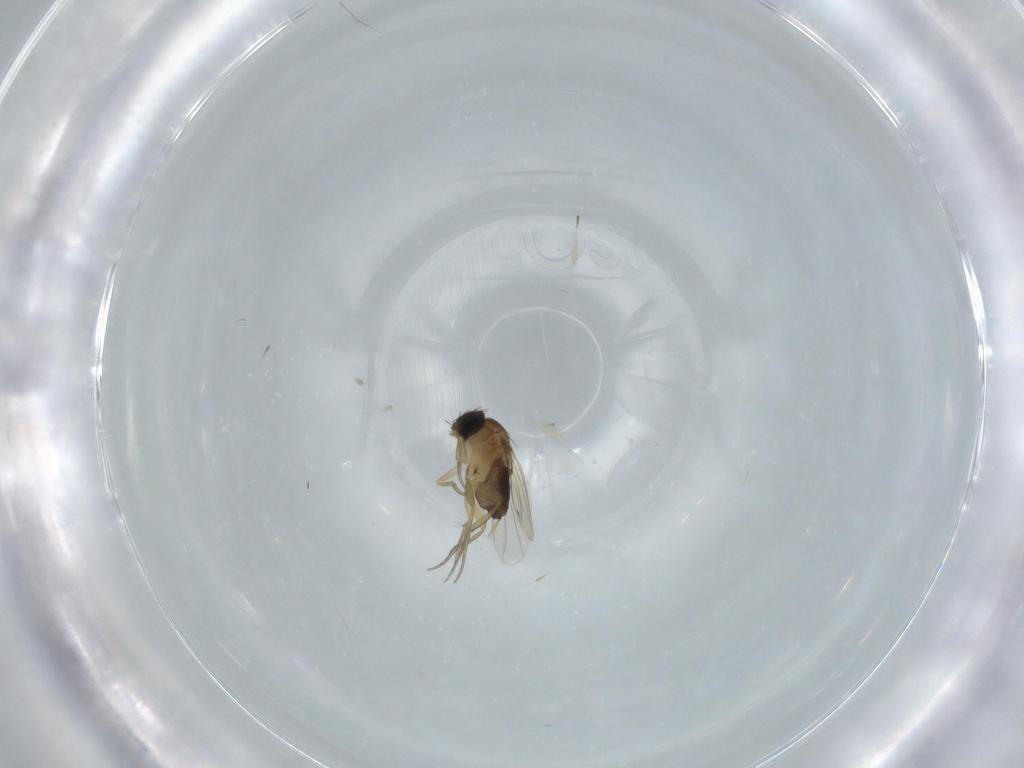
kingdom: Animalia
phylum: Arthropoda
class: Insecta
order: Diptera
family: Phoridae
